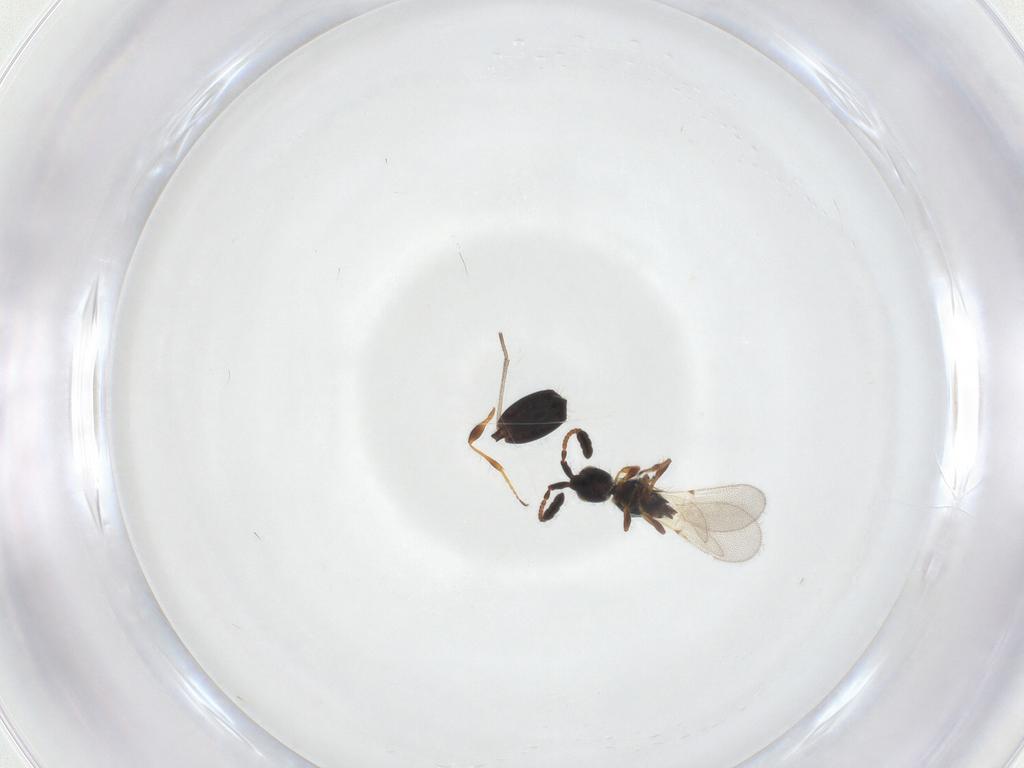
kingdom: Animalia
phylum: Arthropoda
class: Insecta
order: Hymenoptera
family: Diapriidae
